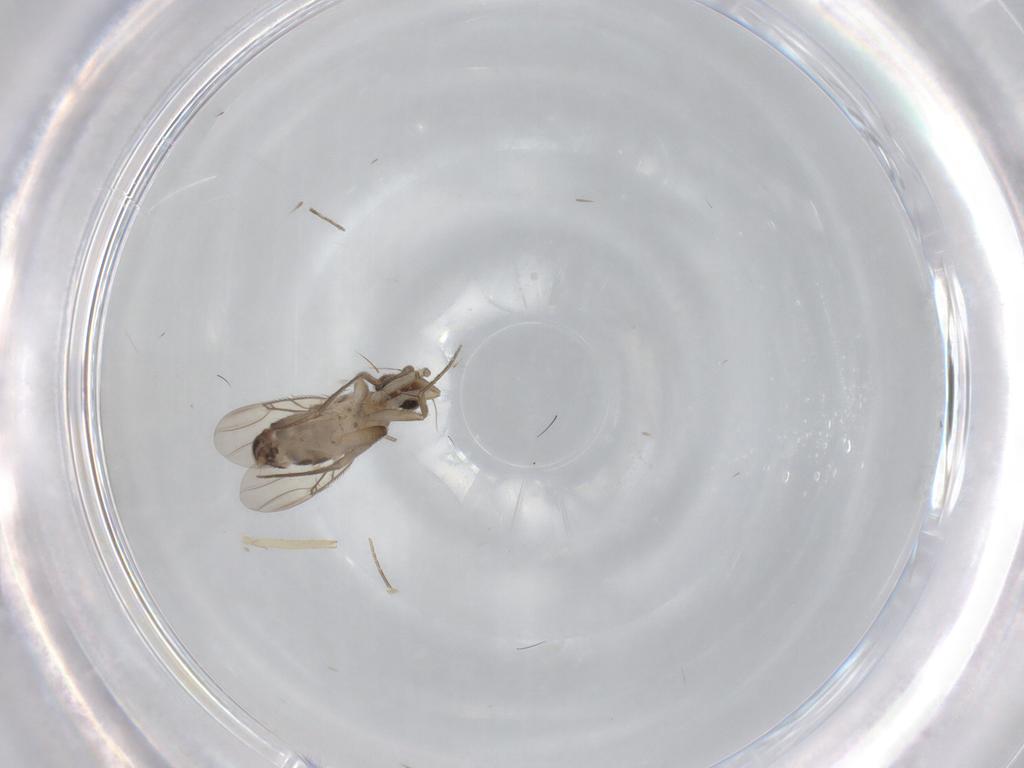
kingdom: Animalia
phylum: Arthropoda
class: Insecta
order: Diptera
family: Phoridae
